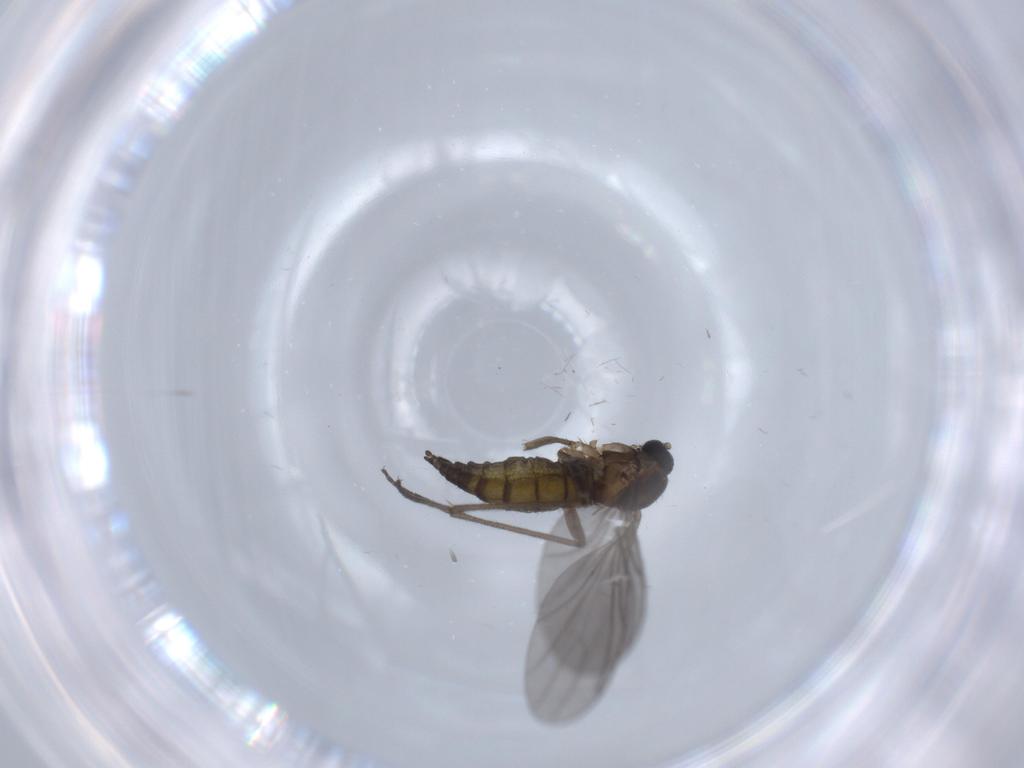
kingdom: Animalia
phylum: Arthropoda
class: Insecta
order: Diptera
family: Sciaridae
